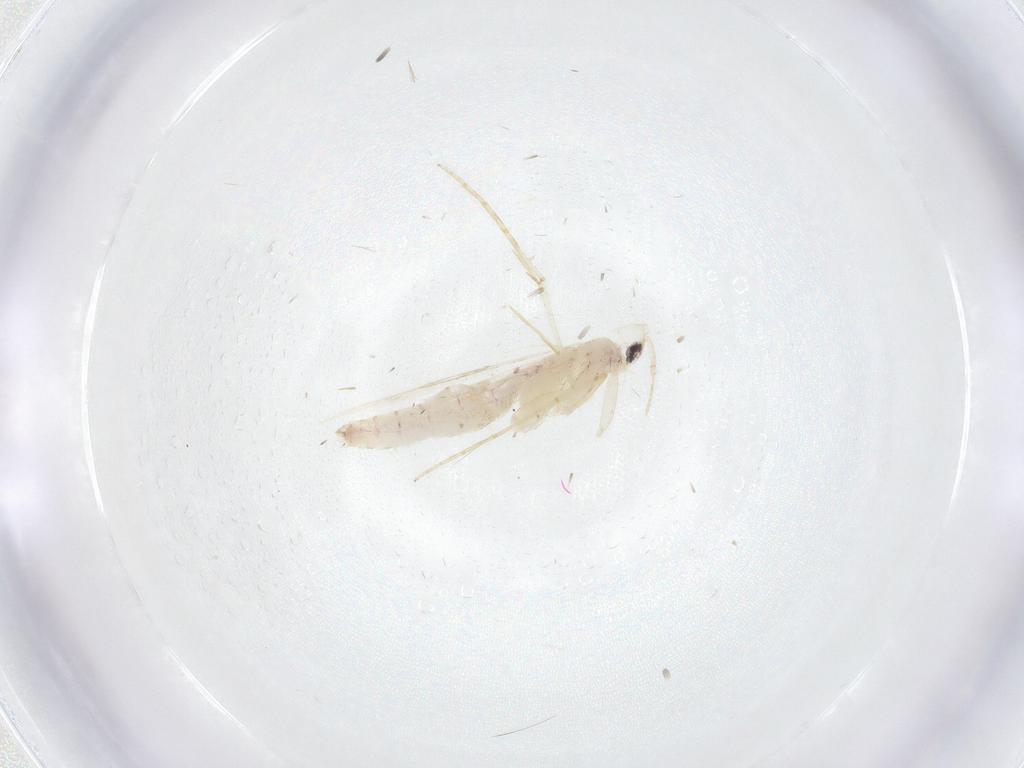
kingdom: Animalia
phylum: Arthropoda
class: Insecta
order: Lepidoptera
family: Tineidae
